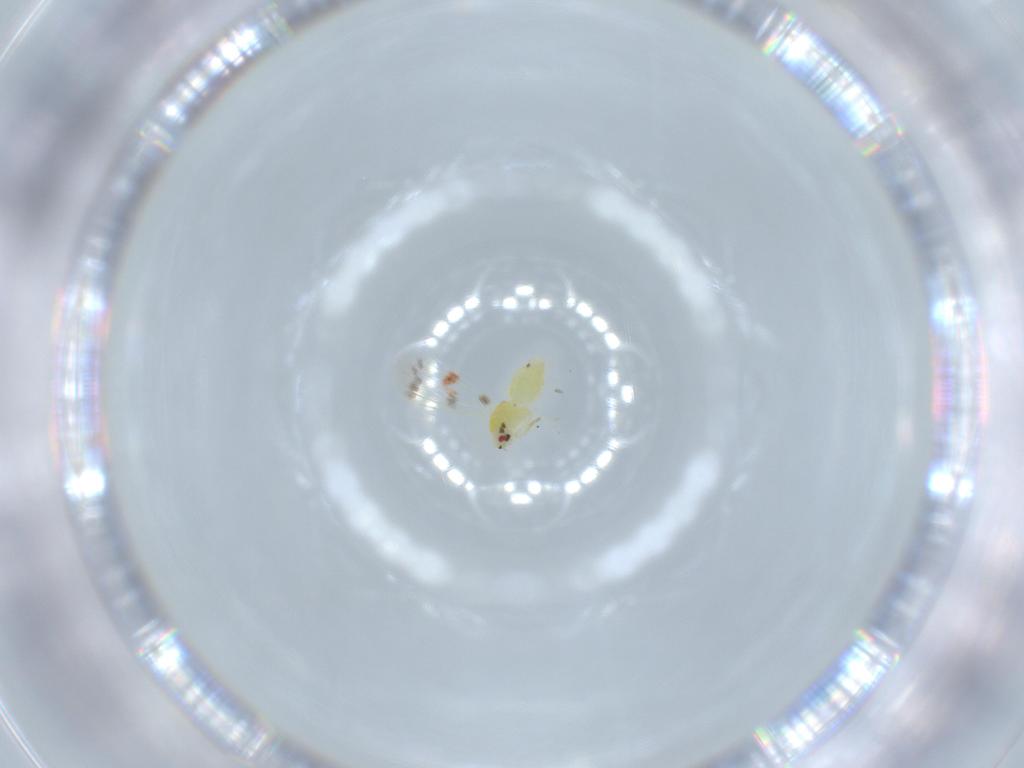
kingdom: Animalia
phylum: Arthropoda
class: Insecta
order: Hemiptera
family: Aleyrodidae
